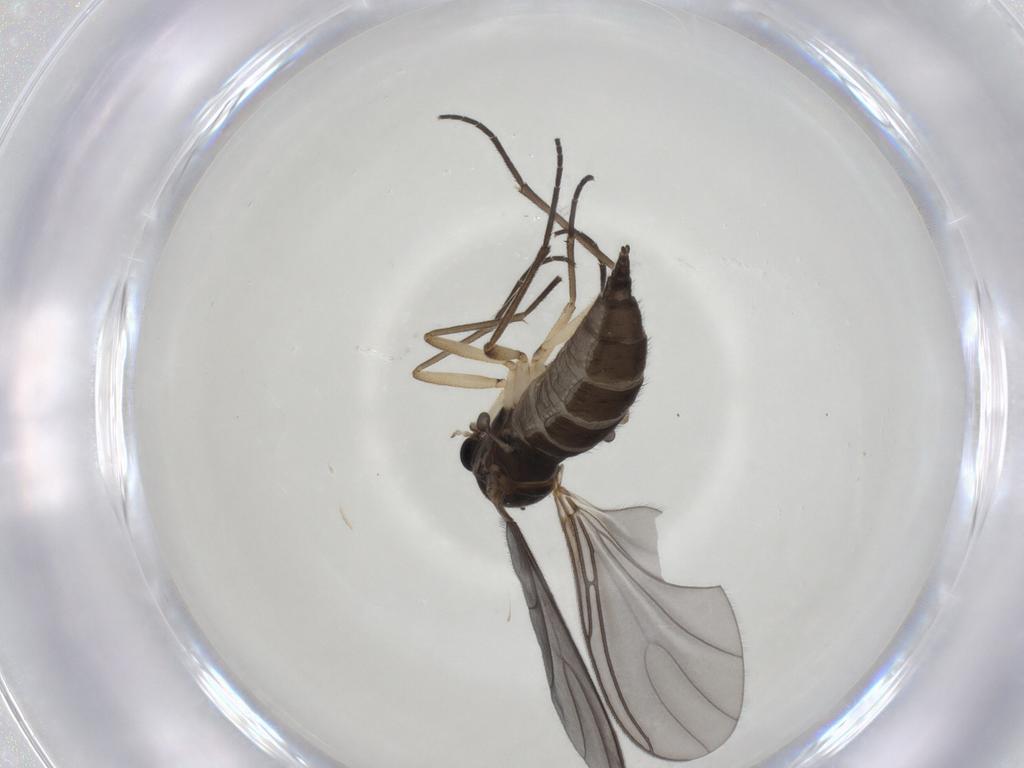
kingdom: Animalia
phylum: Arthropoda
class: Insecta
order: Diptera
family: Sciaridae
